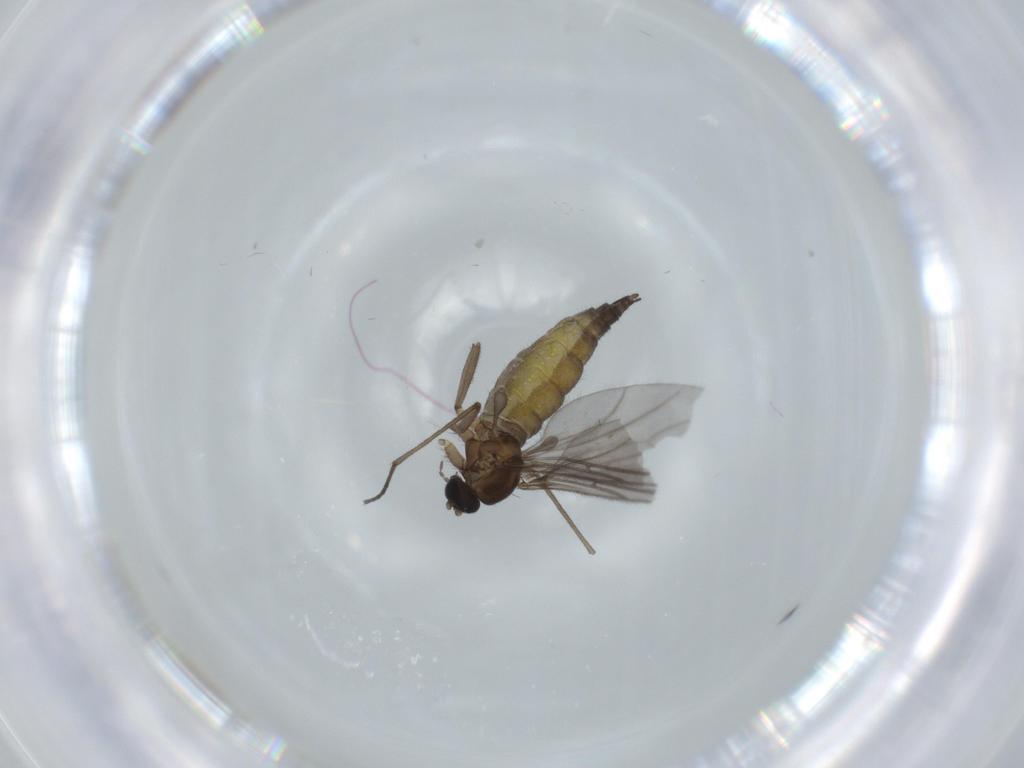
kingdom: Animalia
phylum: Arthropoda
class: Insecta
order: Diptera
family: Sciaridae
